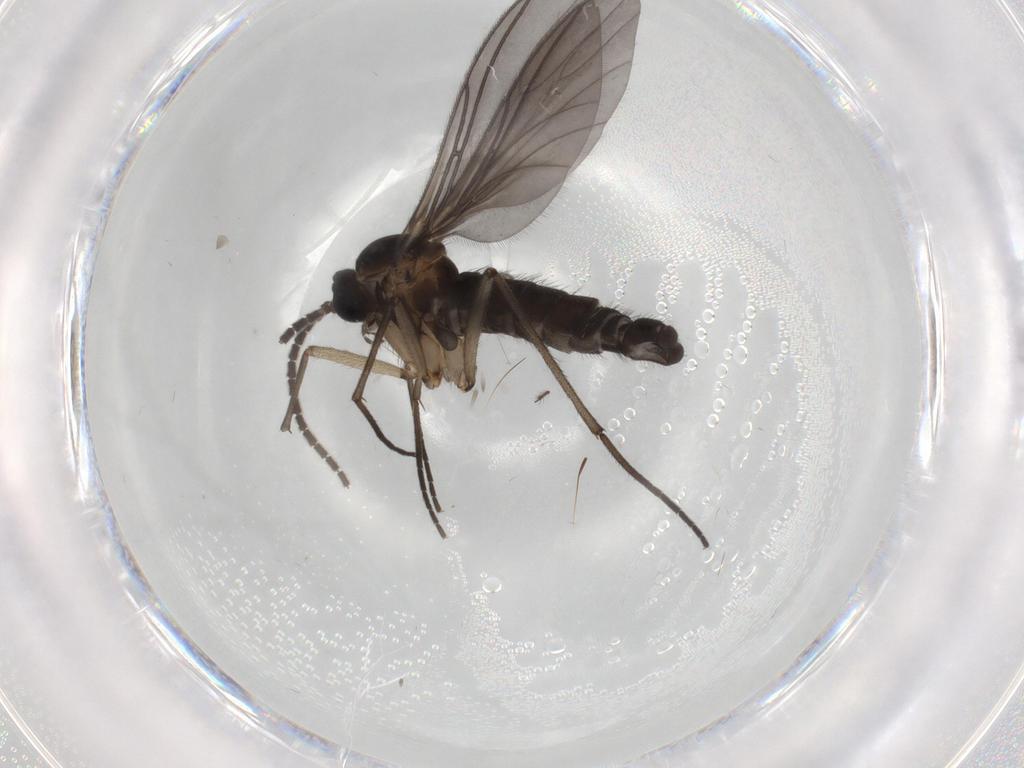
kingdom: Animalia
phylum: Arthropoda
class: Insecta
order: Diptera
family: Sciaridae
